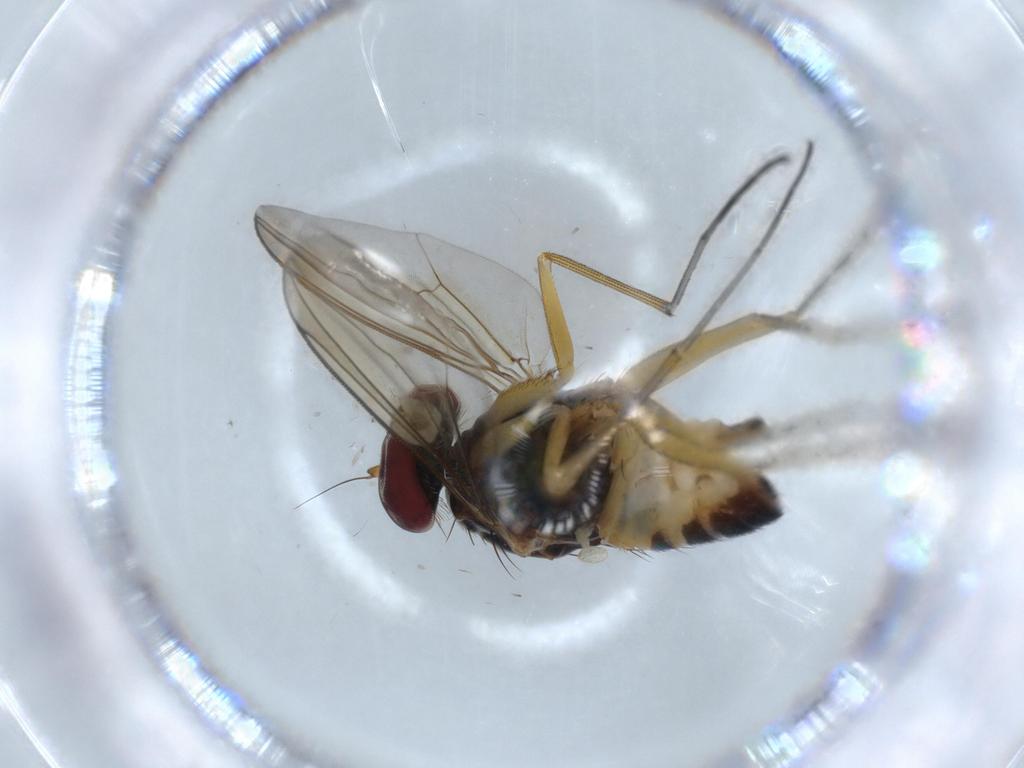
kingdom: Animalia
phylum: Arthropoda
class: Insecta
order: Diptera
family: Dolichopodidae
